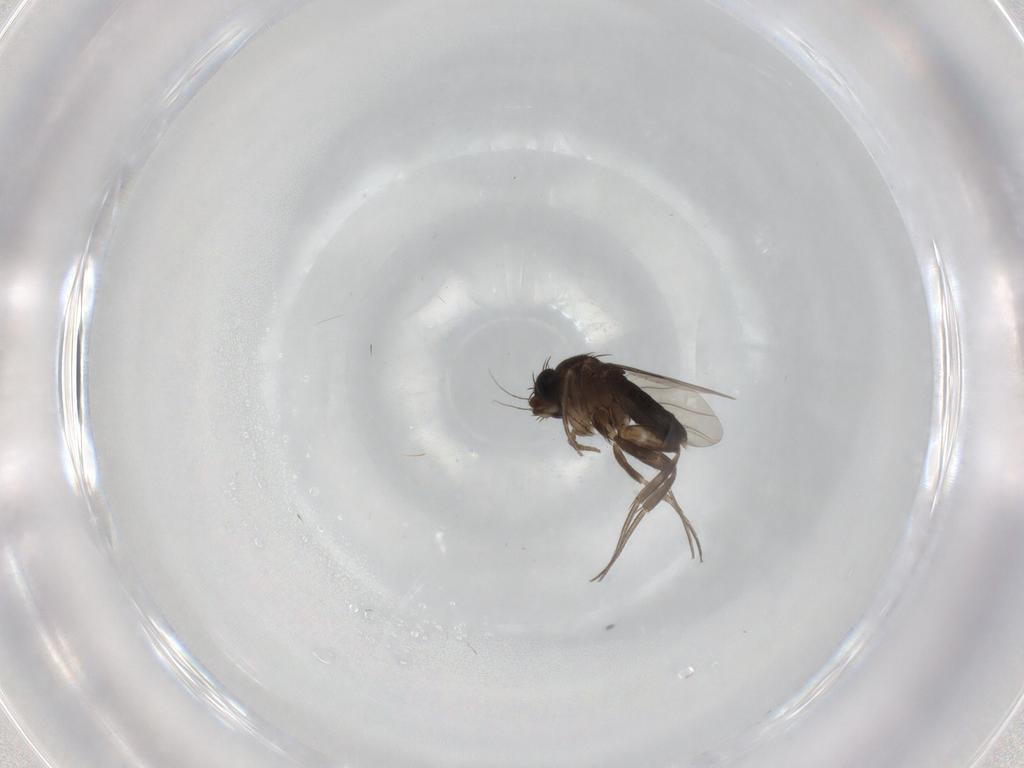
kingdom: Animalia
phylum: Arthropoda
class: Insecta
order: Diptera
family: Phoridae
